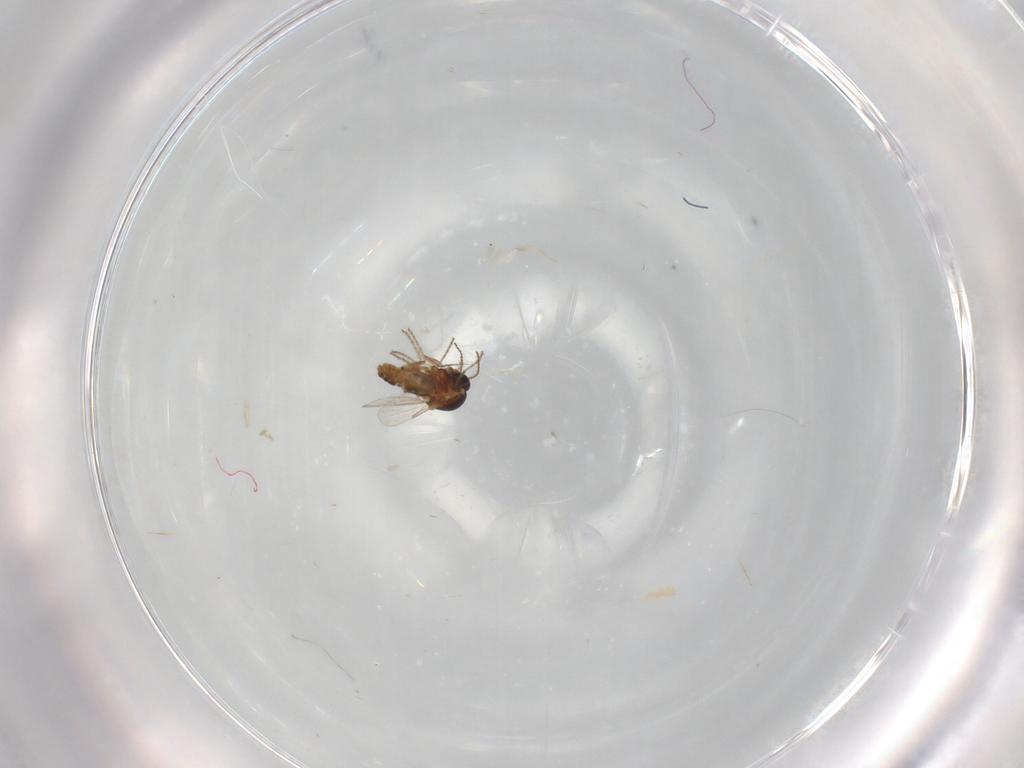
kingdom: Animalia
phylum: Arthropoda
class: Insecta
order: Diptera
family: Ceratopogonidae
